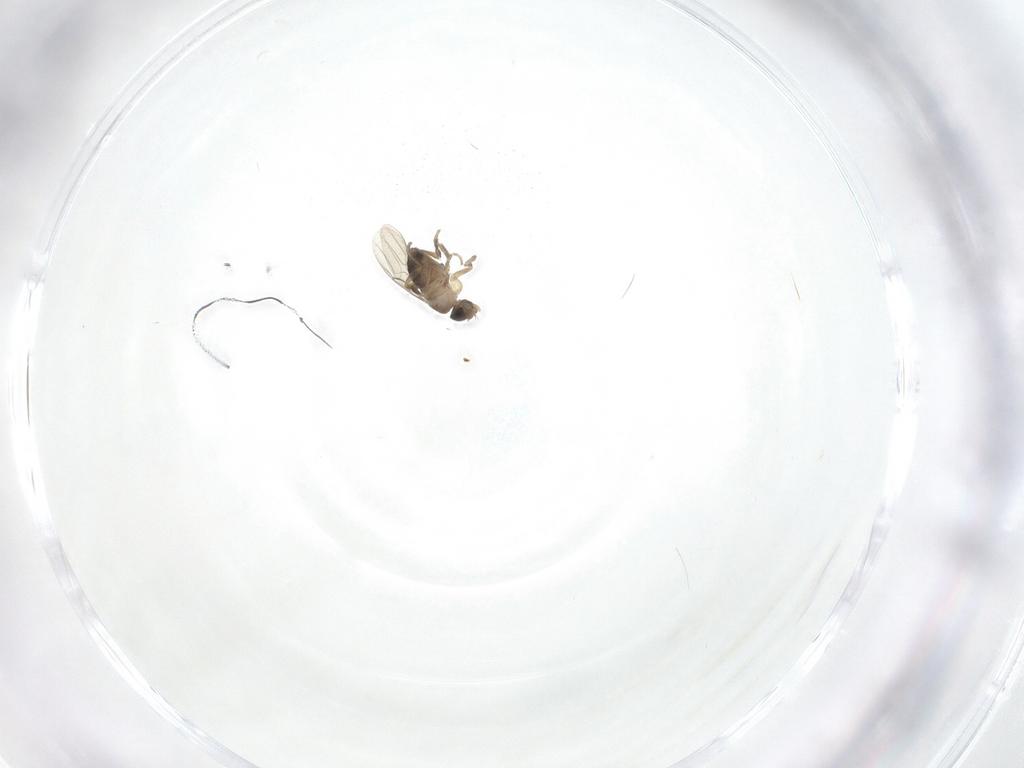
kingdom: Animalia
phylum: Arthropoda
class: Insecta
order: Diptera
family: Phoridae
